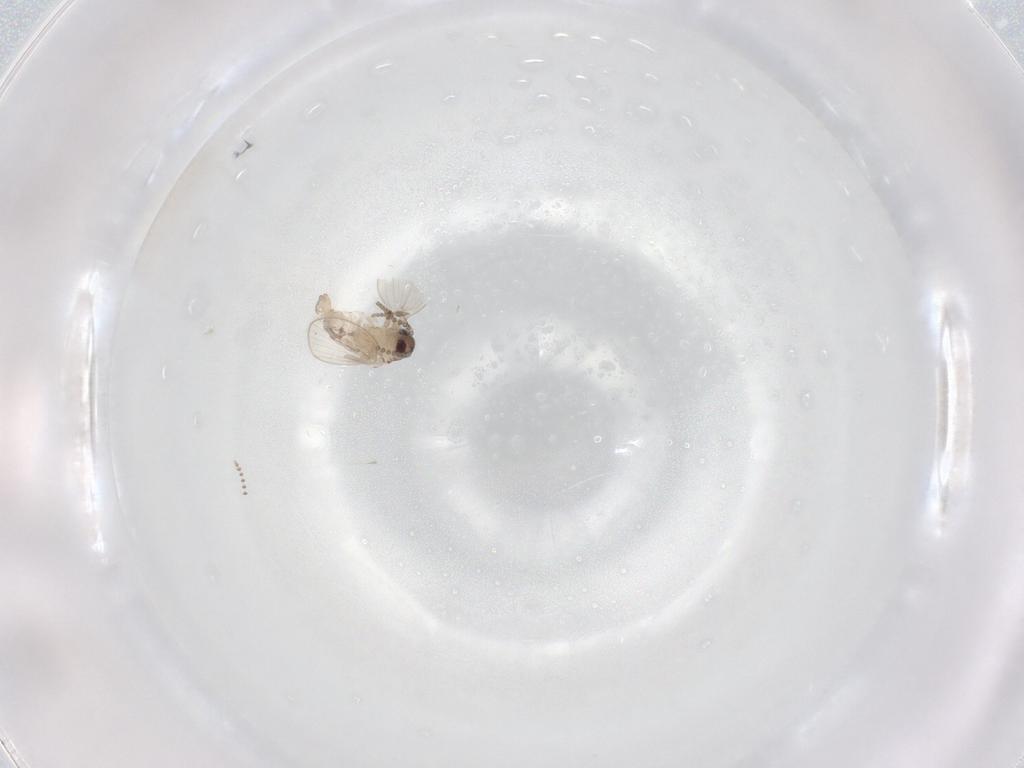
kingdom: Animalia
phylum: Arthropoda
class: Insecta
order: Diptera
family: Psychodidae
